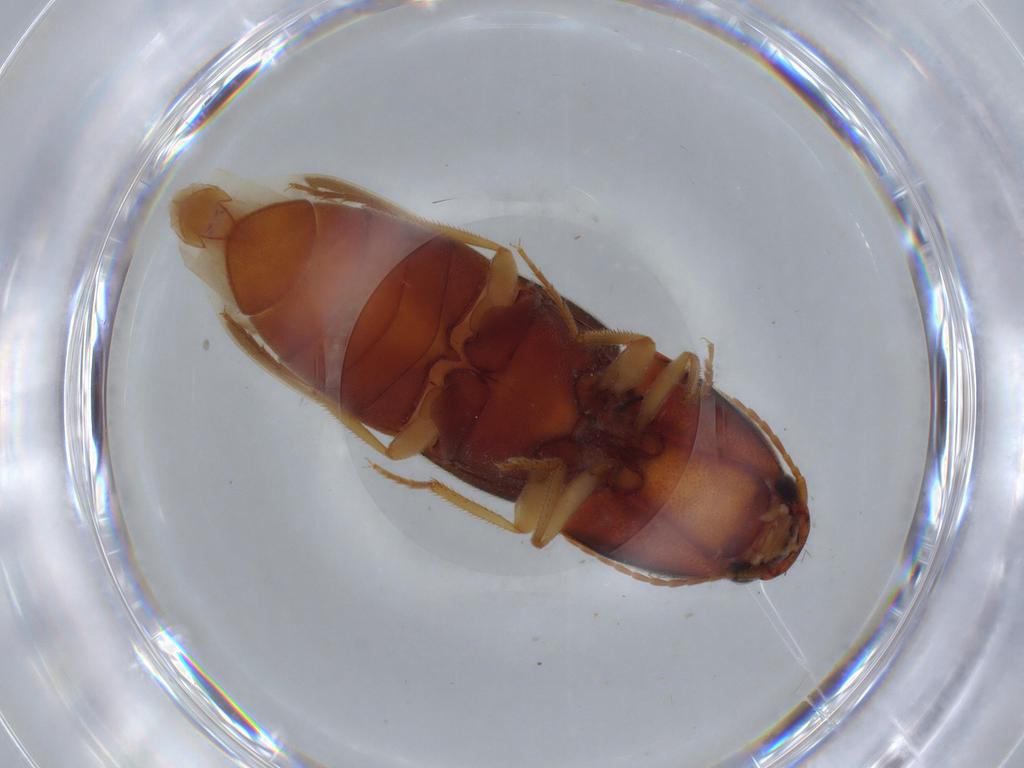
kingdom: Animalia
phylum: Arthropoda
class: Insecta
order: Coleoptera
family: Elateridae
